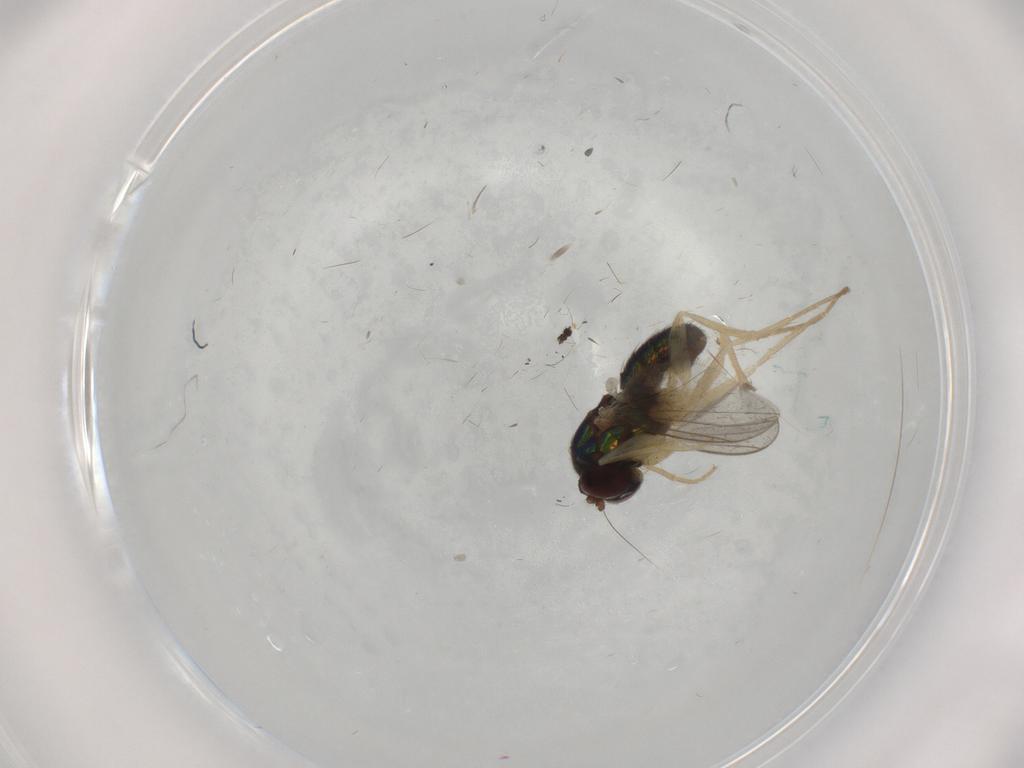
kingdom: Animalia
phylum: Arthropoda
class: Insecta
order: Diptera
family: Dolichopodidae
